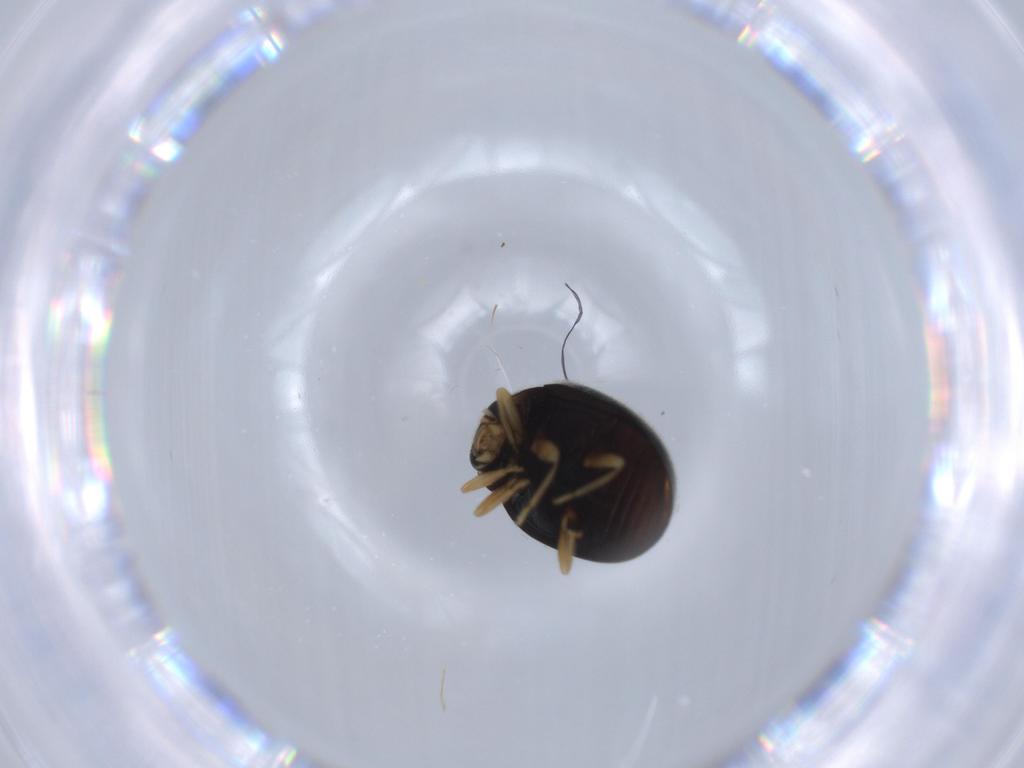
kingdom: Animalia
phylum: Arthropoda
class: Insecta
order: Coleoptera
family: Coccinellidae
